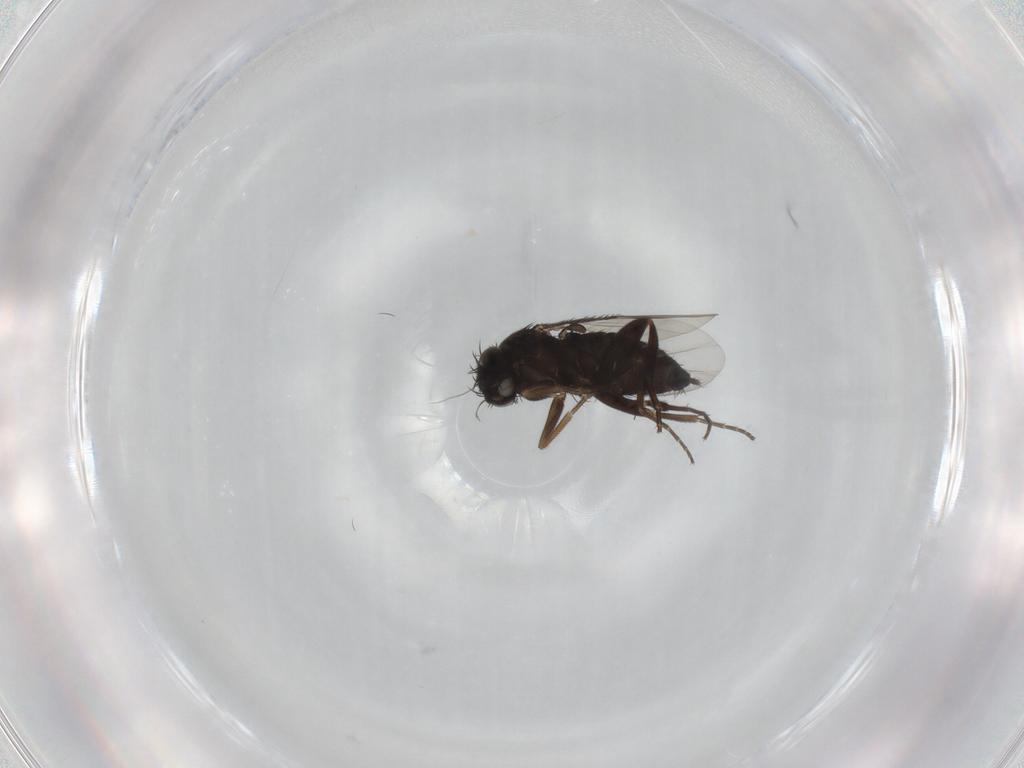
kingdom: Animalia
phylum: Arthropoda
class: Insecta
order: Diptera
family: Phoridae
